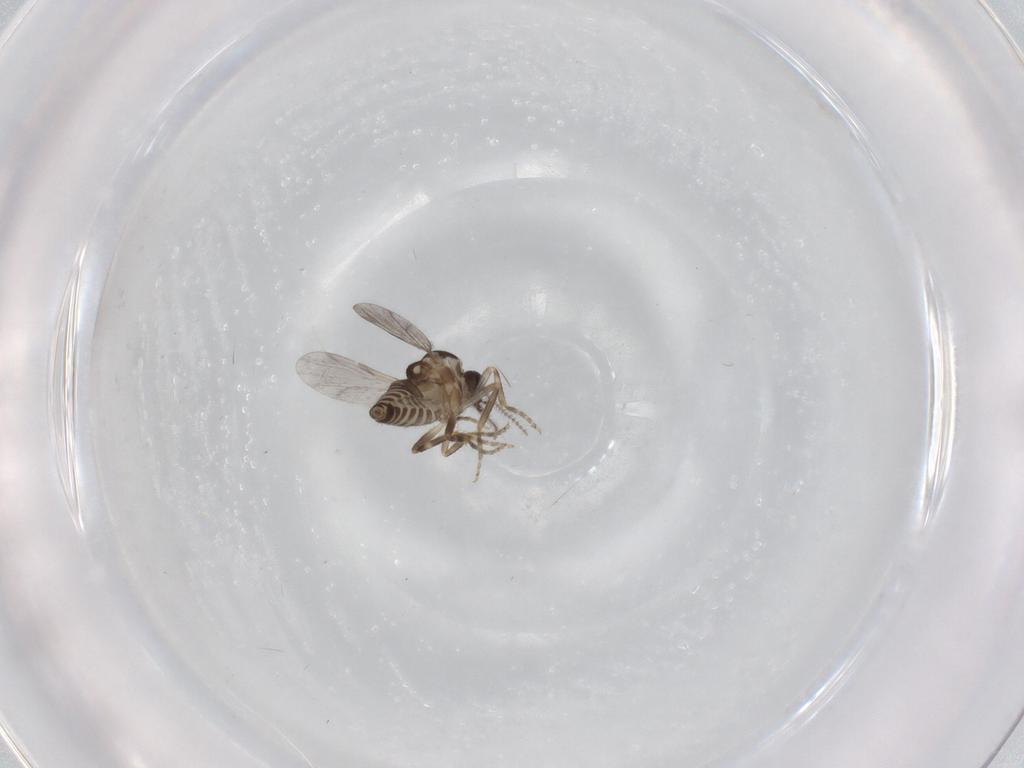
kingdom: Animalia
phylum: Arthropoda
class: Insecta
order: Diptera
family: Ceratopogonidae
